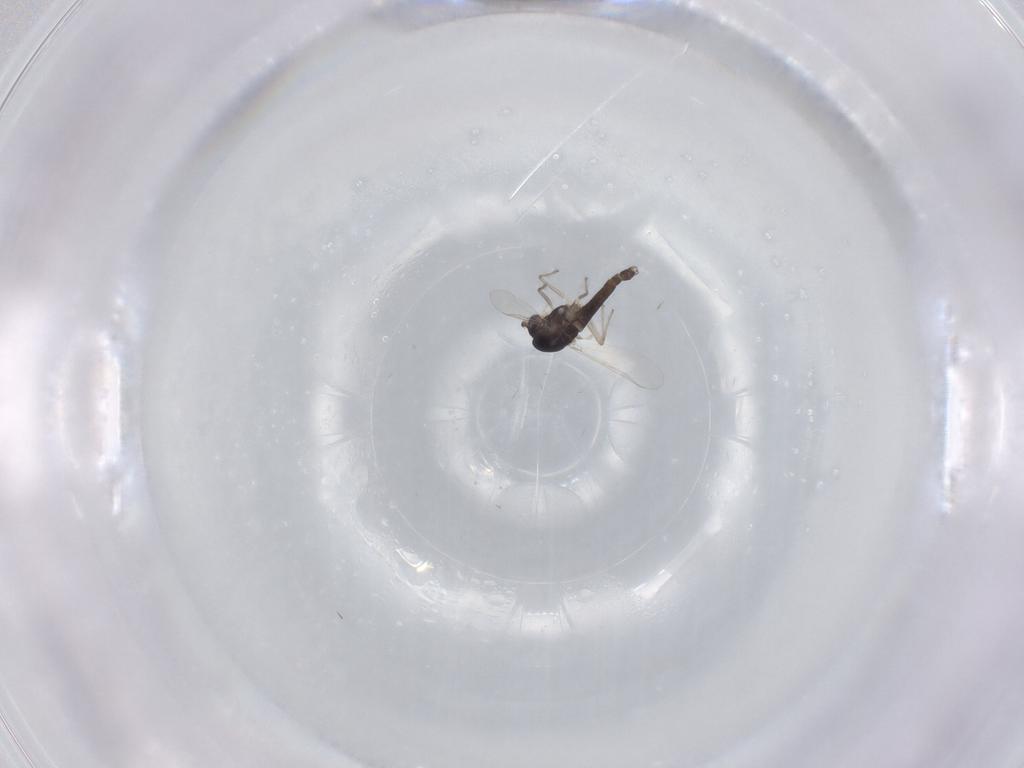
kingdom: Animalia
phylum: Arthropoda
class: Insecta
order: Diptera
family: Chironomidae
